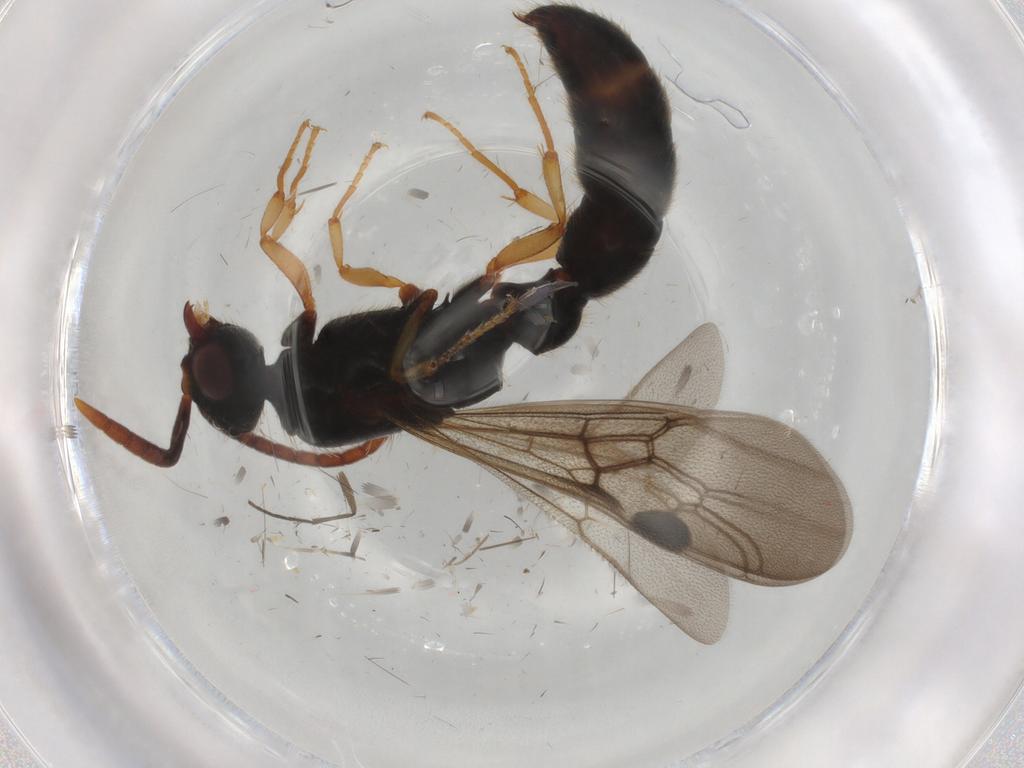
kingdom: Animalia
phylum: Arthropoda
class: Insecta
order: Hymenoptera
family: Formicidae
